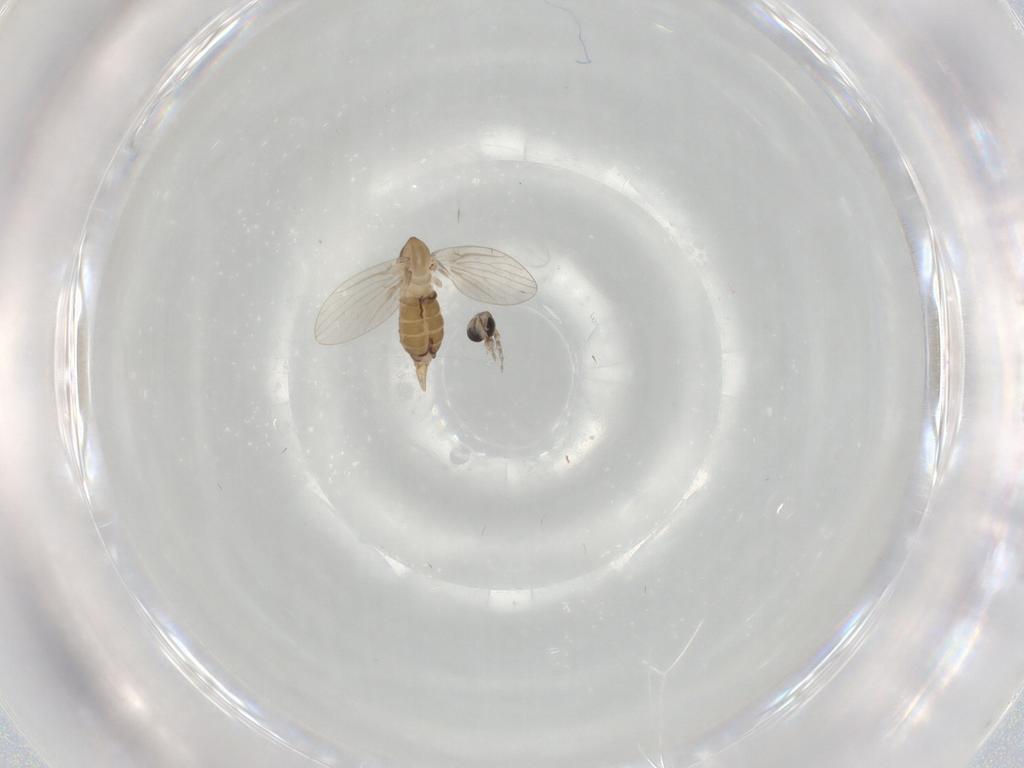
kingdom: Animalia
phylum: Arthropoda
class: Insecta
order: Diptera
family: Psychodidae
